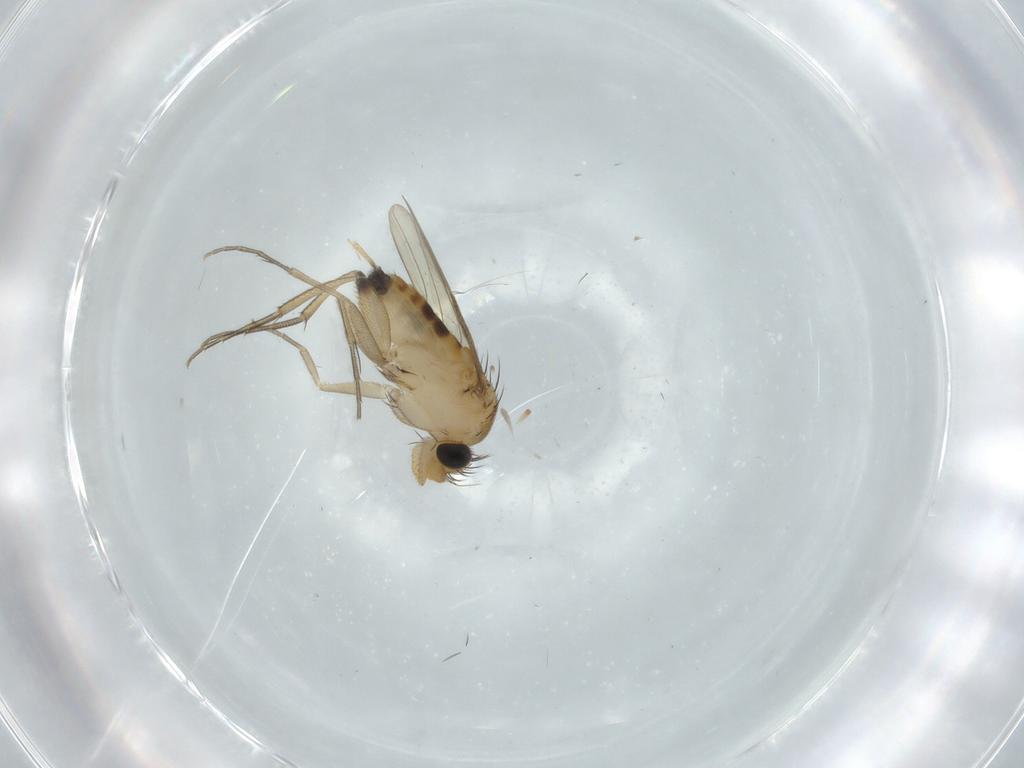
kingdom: Animalia
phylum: Arthropoda
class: Insecta
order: Diptera
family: Phoridae
